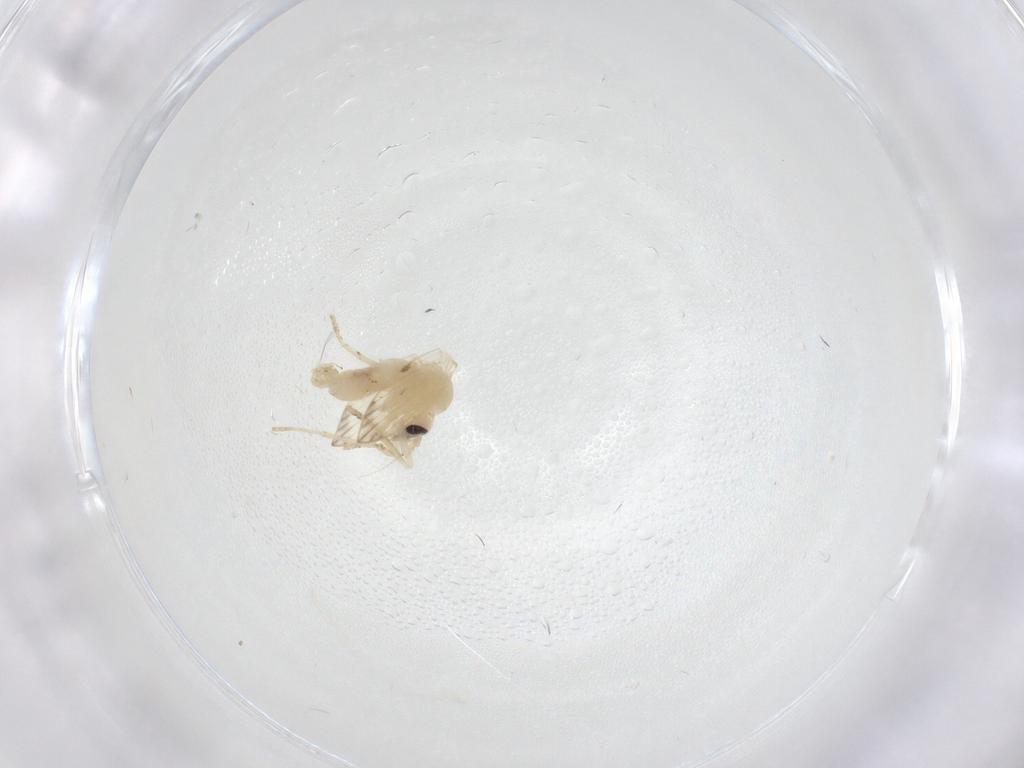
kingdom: Animalia
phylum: Arthropoda
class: Insecta
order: Diptera
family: Psychodidae
